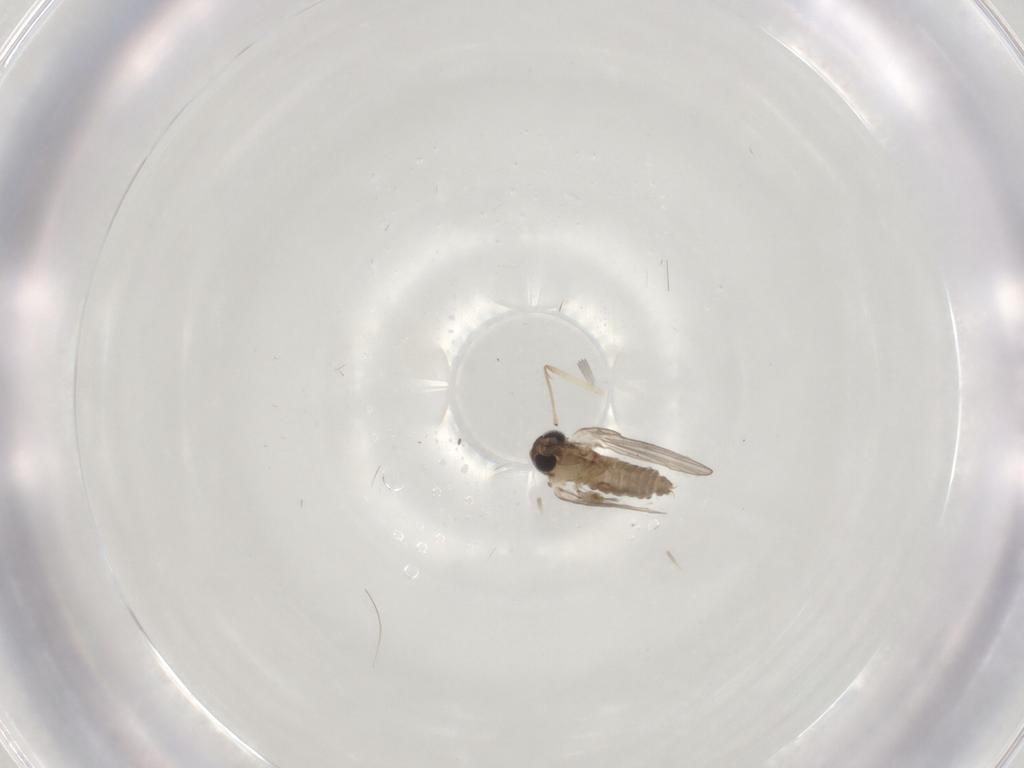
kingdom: Animalia
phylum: Arthropoda
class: Insecta
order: Diptera
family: Chironomidae
